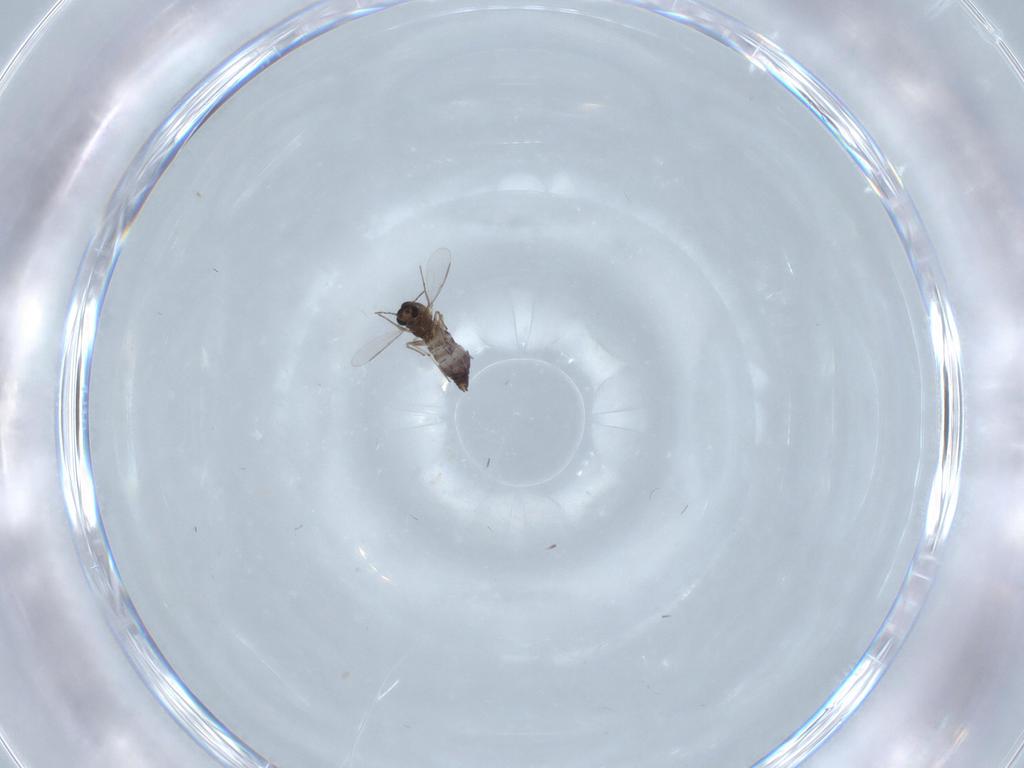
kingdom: Animalia
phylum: Arthropoda
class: Insecta
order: Diptera
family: Chironomidae
